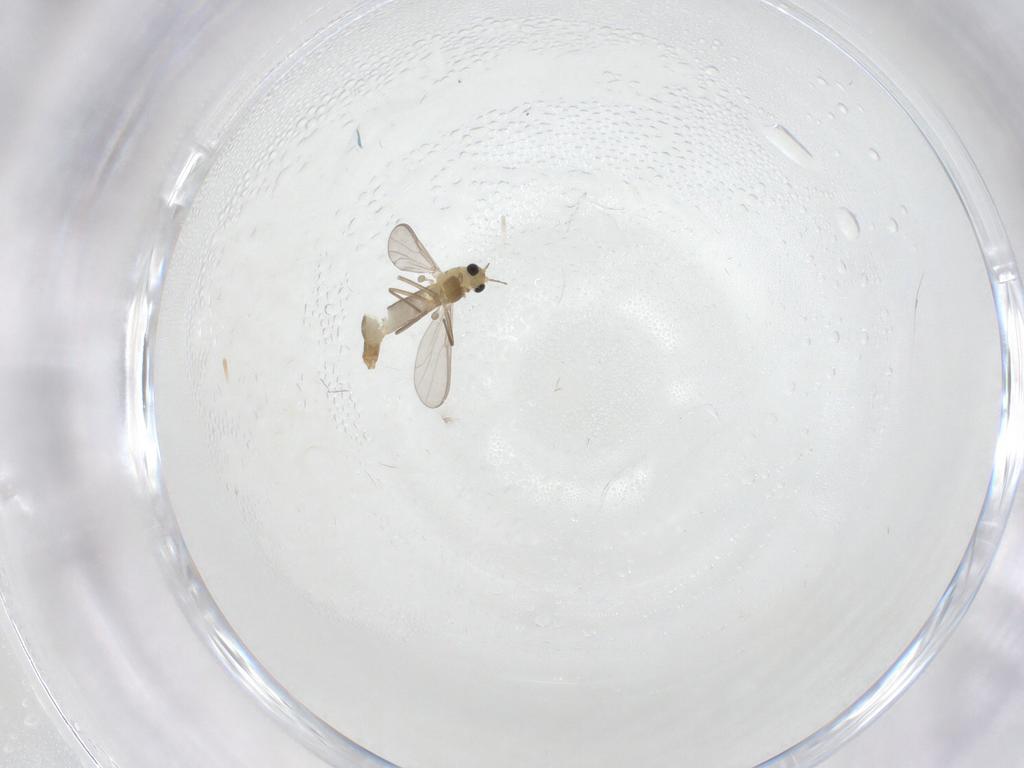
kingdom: Animalia
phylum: Arthropoda
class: Insecta
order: Diptera
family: Chironomidae
